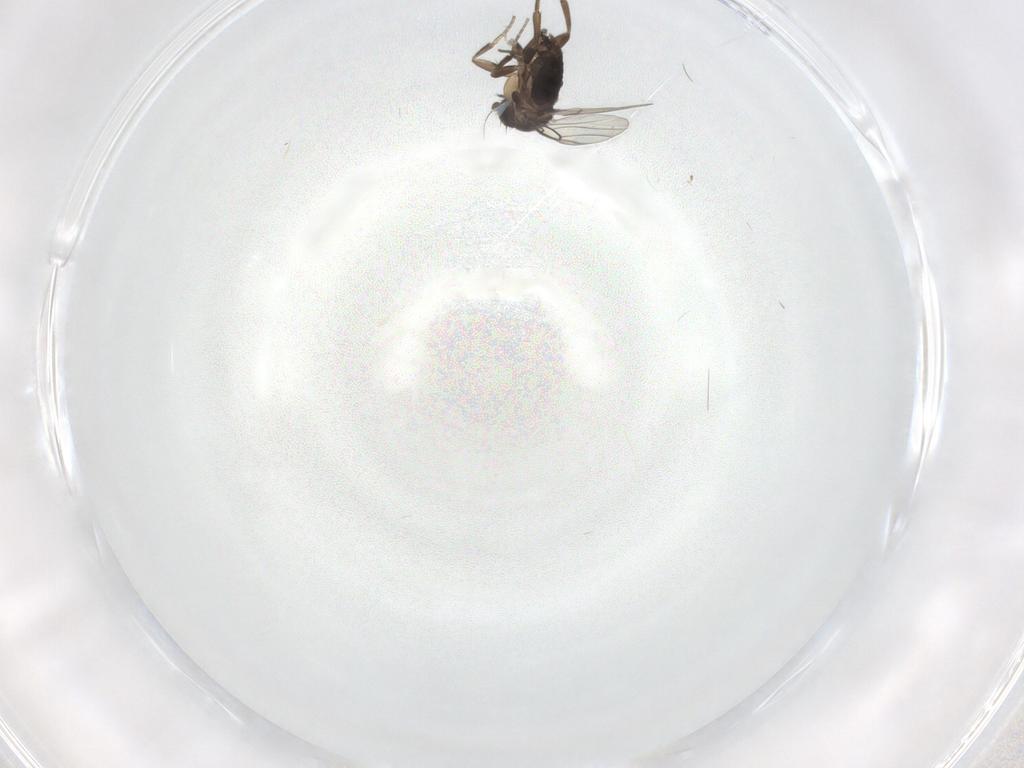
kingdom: Animalia
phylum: Arthropoda
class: Insecta
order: Diptera
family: Phoridae
